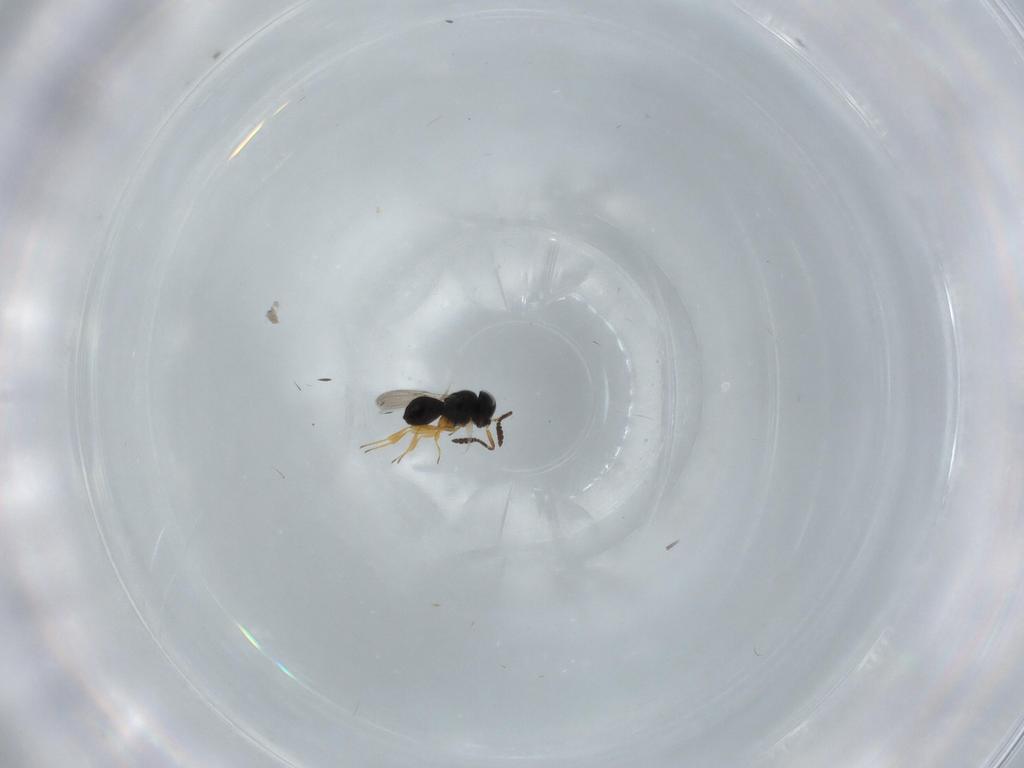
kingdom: Animalia
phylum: Arthropoda
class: Insecta
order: Hymenoptera
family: Scelionidae
